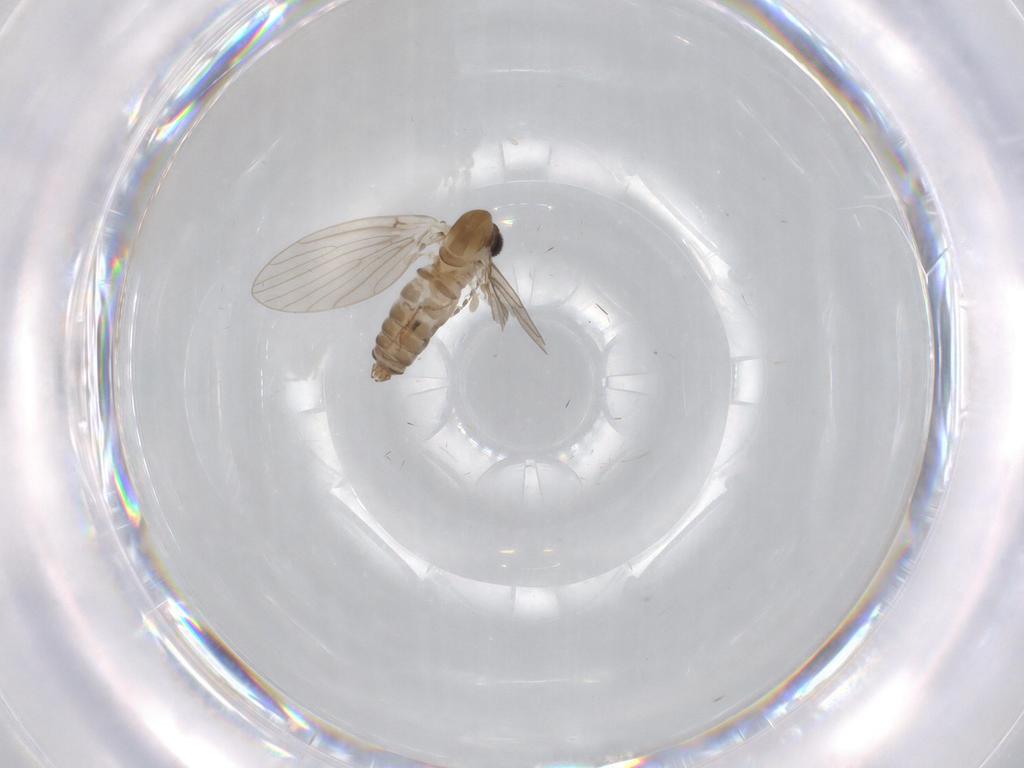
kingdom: Animalia
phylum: Arthropoda
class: Insecta
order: Diptera
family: Psychodidae
